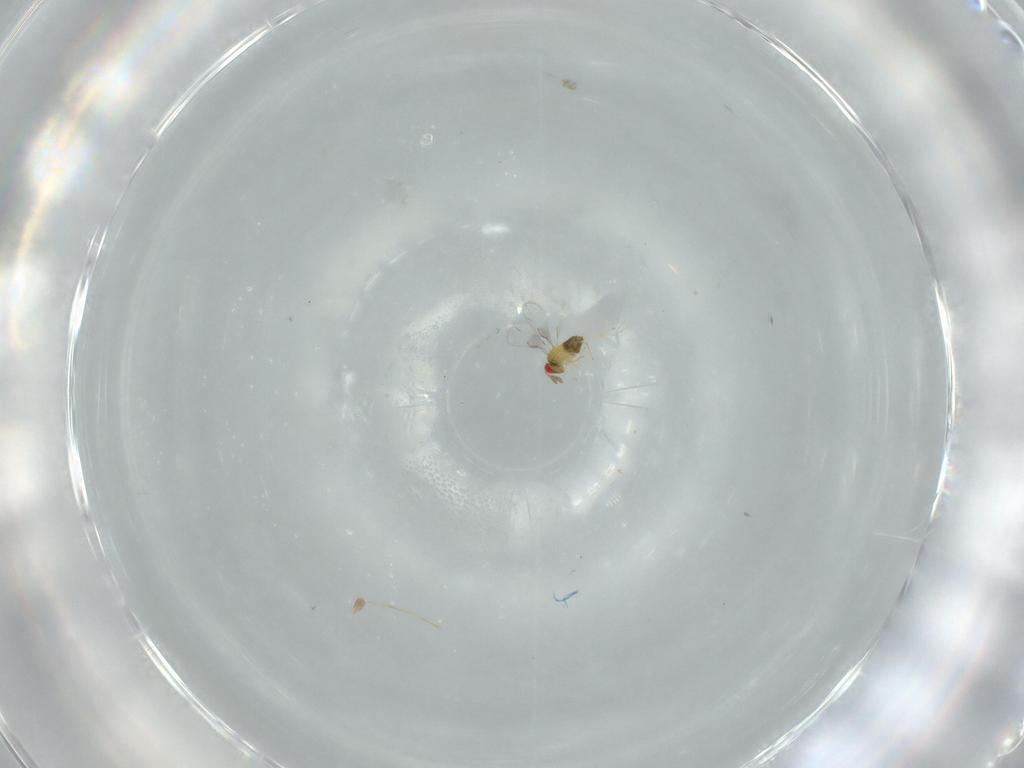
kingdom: Animalia
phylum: Arthropoda
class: Insecta
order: Hymenoptera
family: Trichogrammatidae
